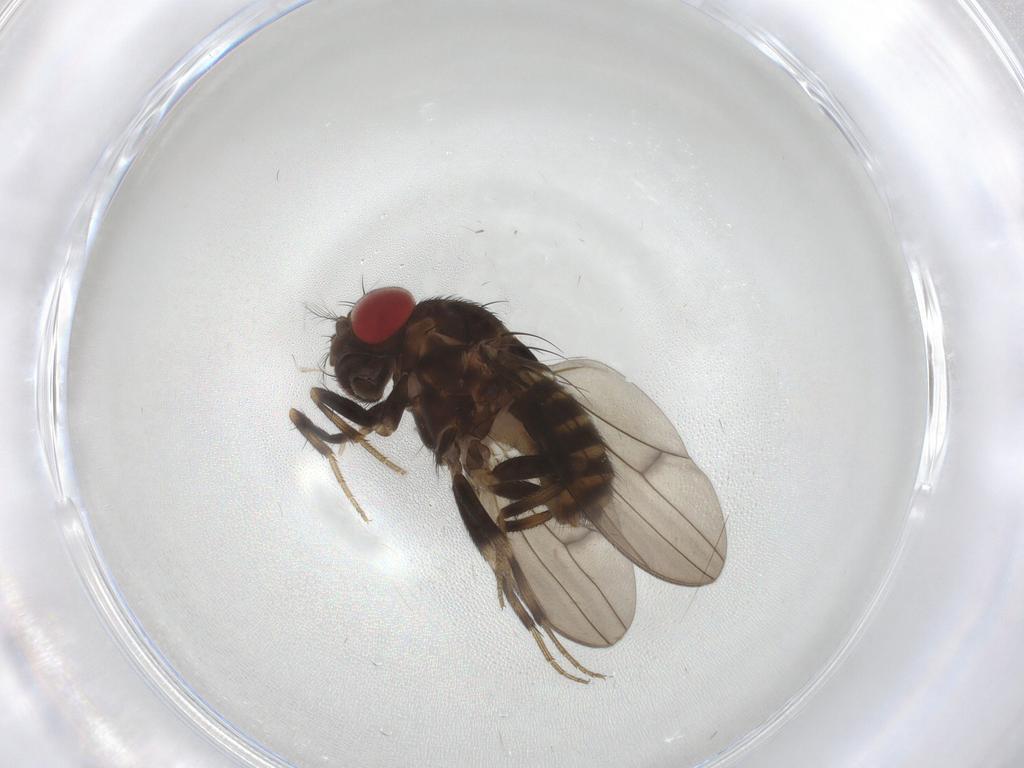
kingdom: Animalia
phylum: Arthropoda
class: Insecta
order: Diptera
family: Drosophilidae
